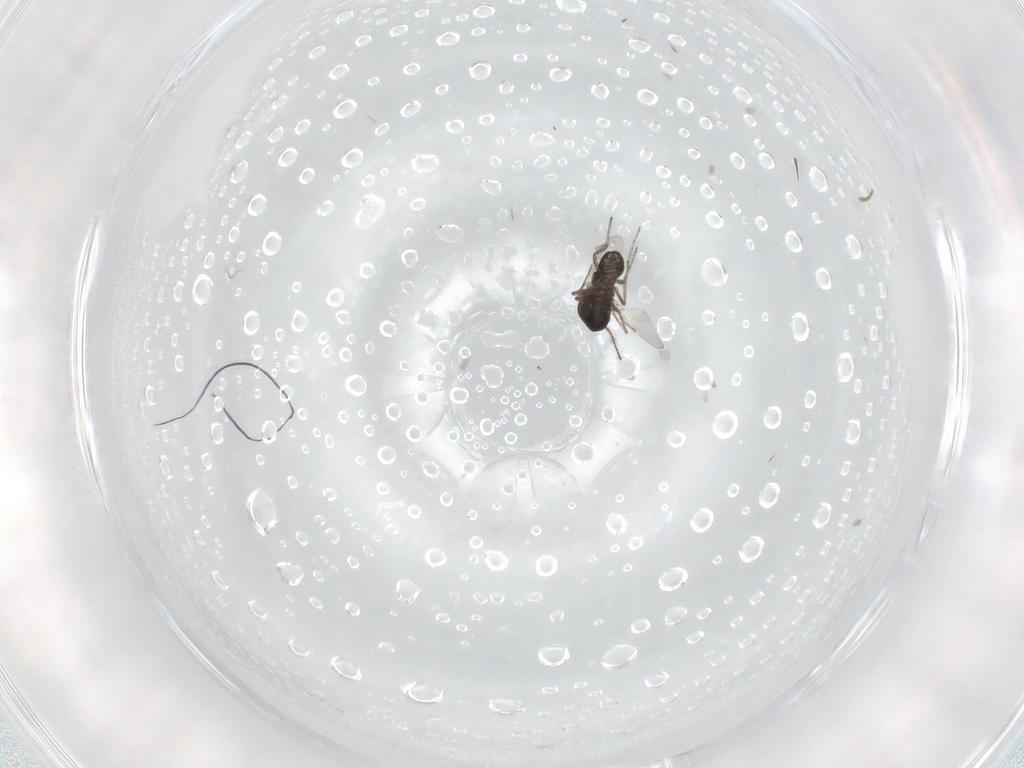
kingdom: Animalia
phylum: Arthropoda
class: Insecta
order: Diptera
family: Ceratopogonidae
